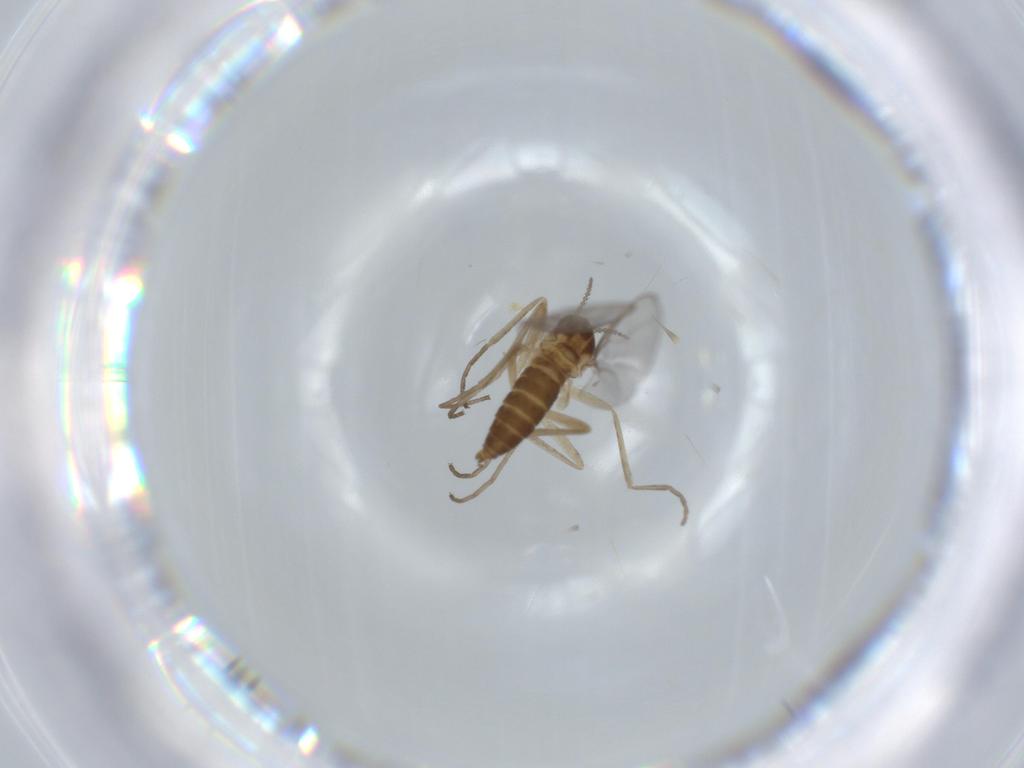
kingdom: Animalia
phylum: Arthropoda
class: Insecta
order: Diptera
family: Cecidomyiidae
